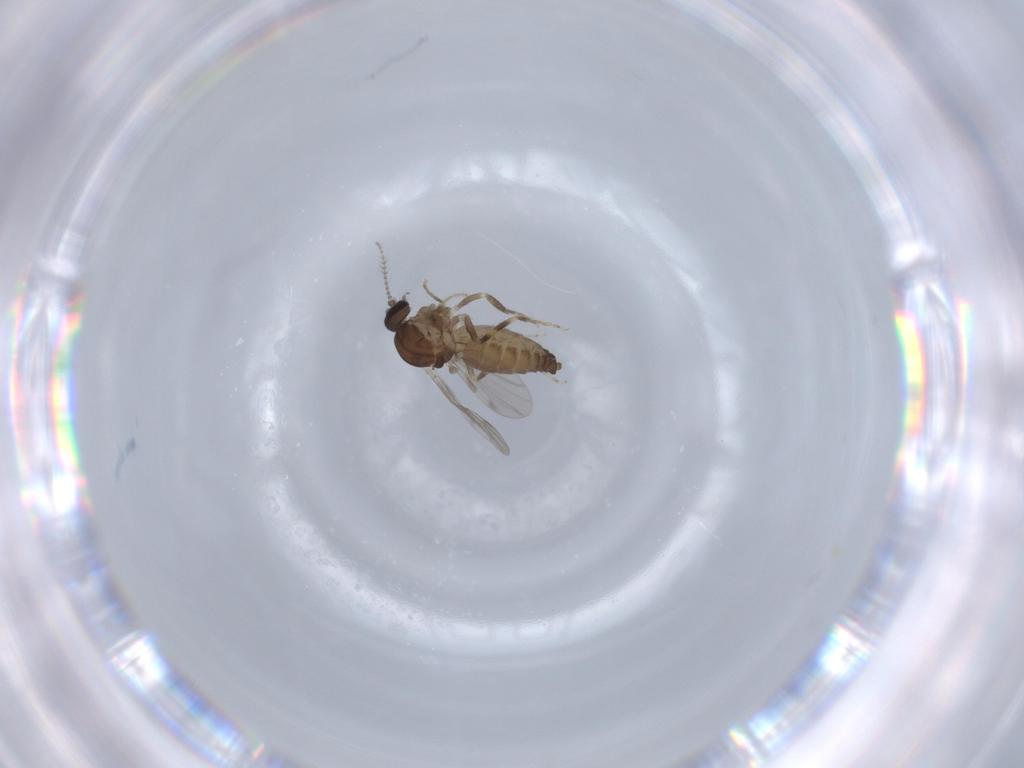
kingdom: Animalia
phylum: Arthropoda
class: Insecta
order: Diptera
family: Ceratopogonidae
